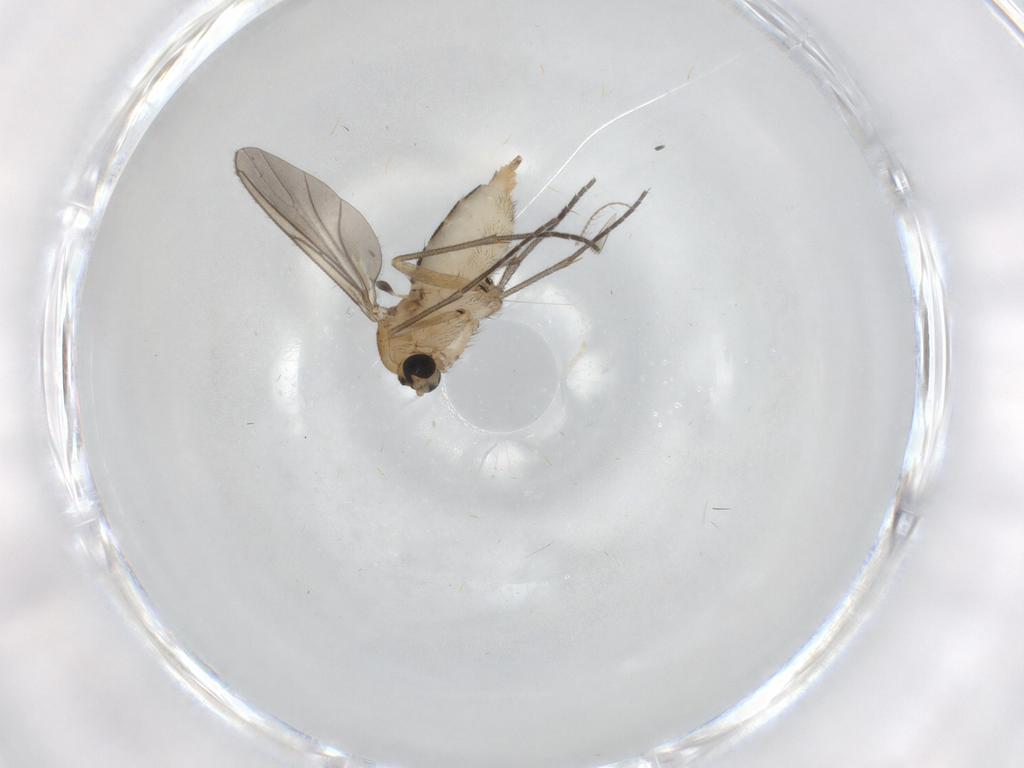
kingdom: Animalia
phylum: Arthropoda
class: Insecta
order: Diptera
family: Sciaridae
